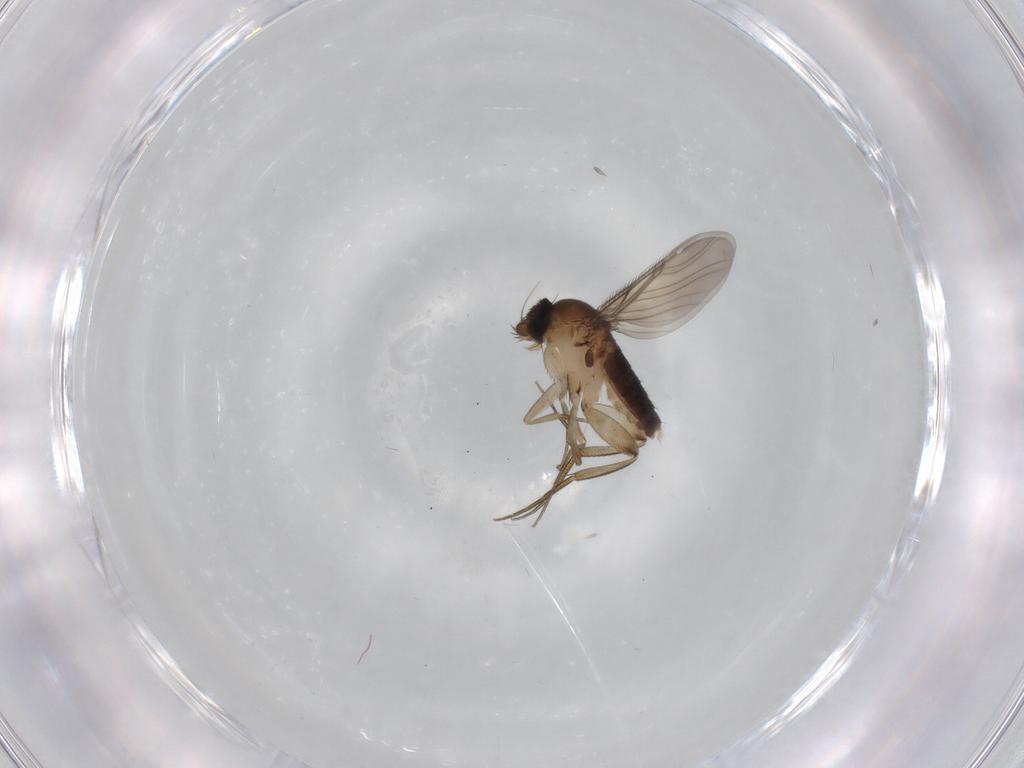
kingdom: Animalia
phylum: Arthropoda
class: Insecta
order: Diptera
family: Phoridae
